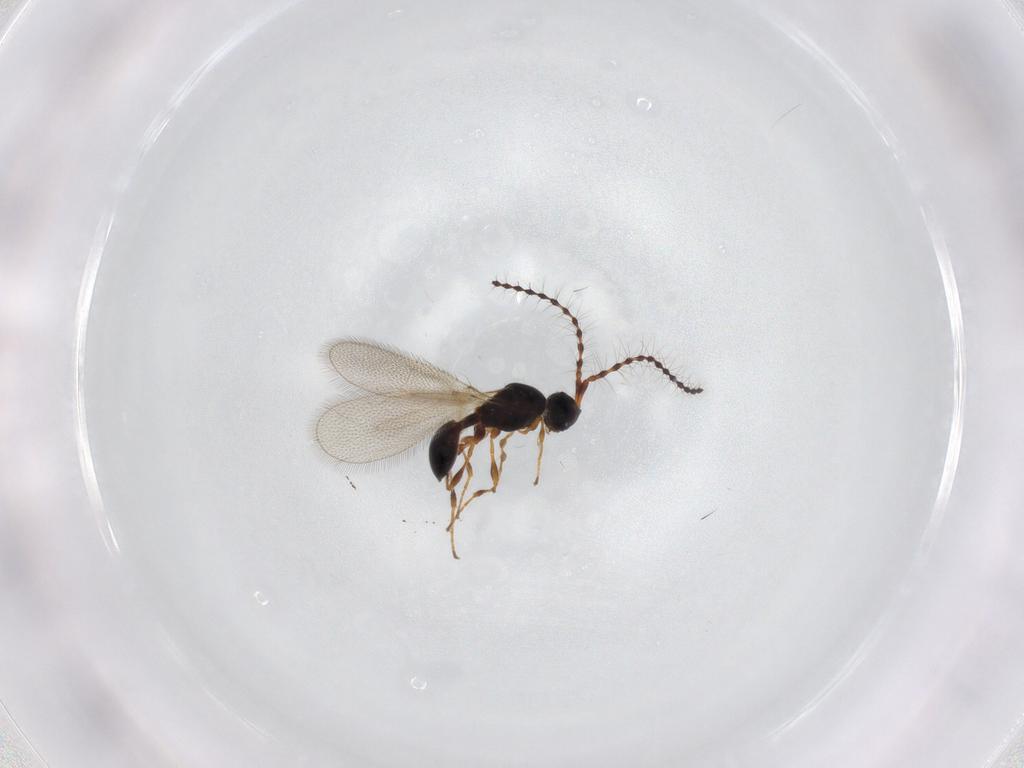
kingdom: Animalia
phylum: Arthropoda
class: Insecta
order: Hymenoptera
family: Diapriidae
